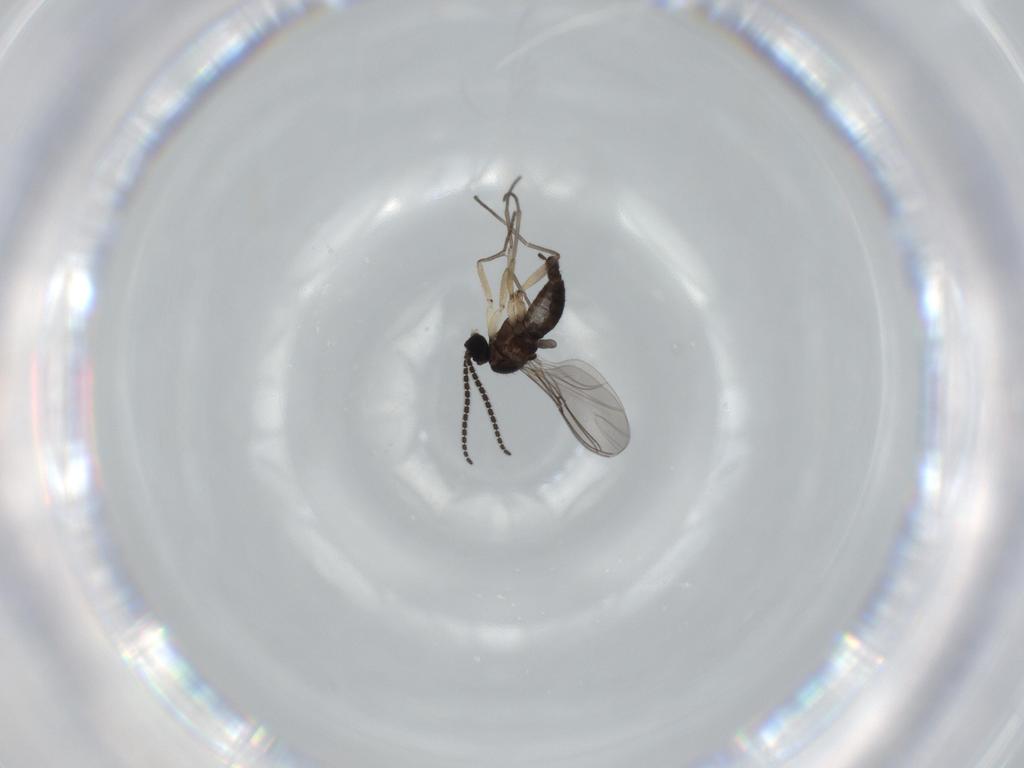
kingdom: Animalia
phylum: Arthropoda
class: Insecta
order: Diptera
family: Sciaridae
